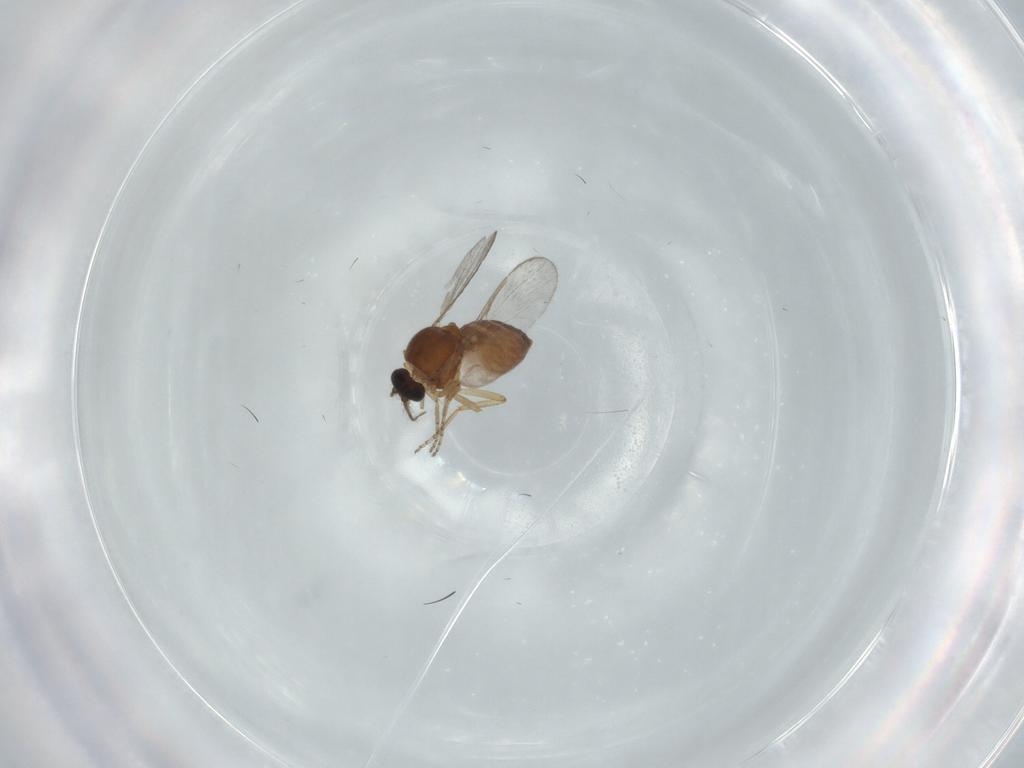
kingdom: Animalia
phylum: Arthropoda
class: Insecta
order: Diptera
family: Ceratopogonidae
